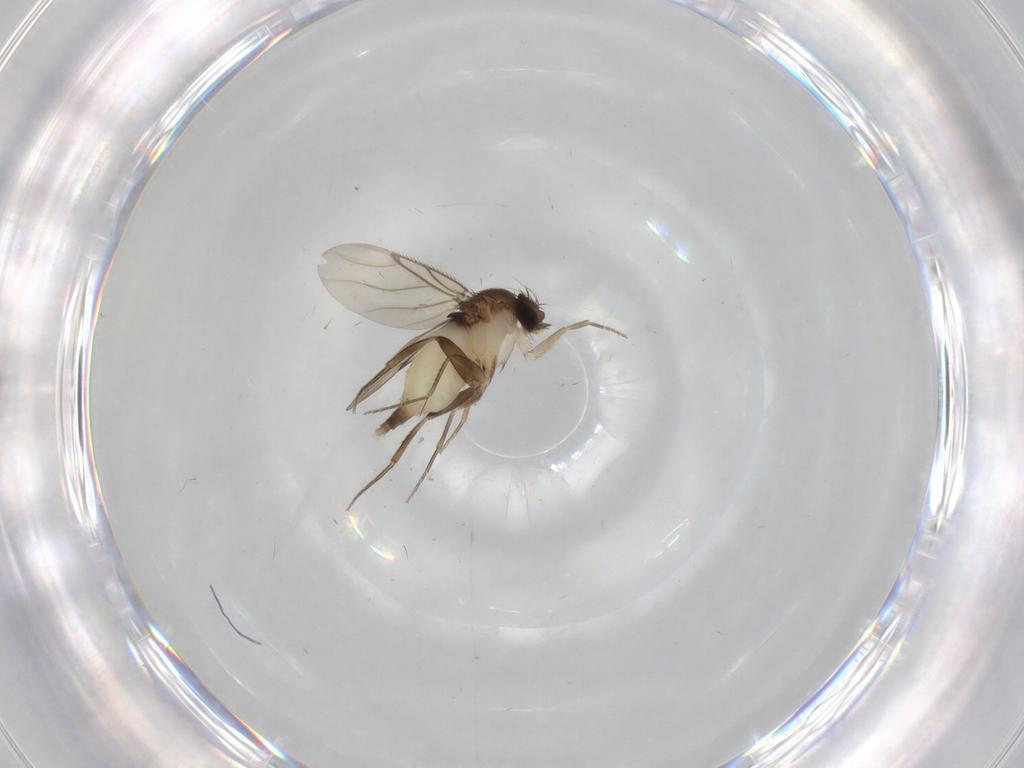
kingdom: Animalia
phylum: Arthropoda
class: Insecta
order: Diptera
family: Phoridae
